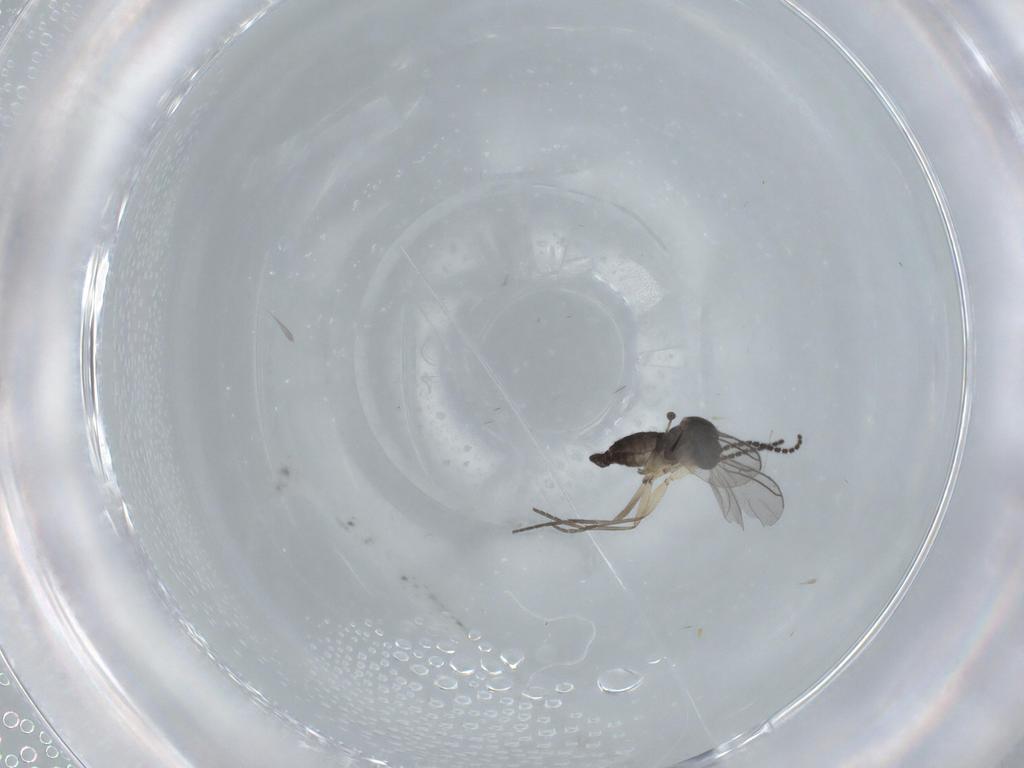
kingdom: Animalia
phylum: Arthropoda
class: Insecta
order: Diptera
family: Sciaridae
